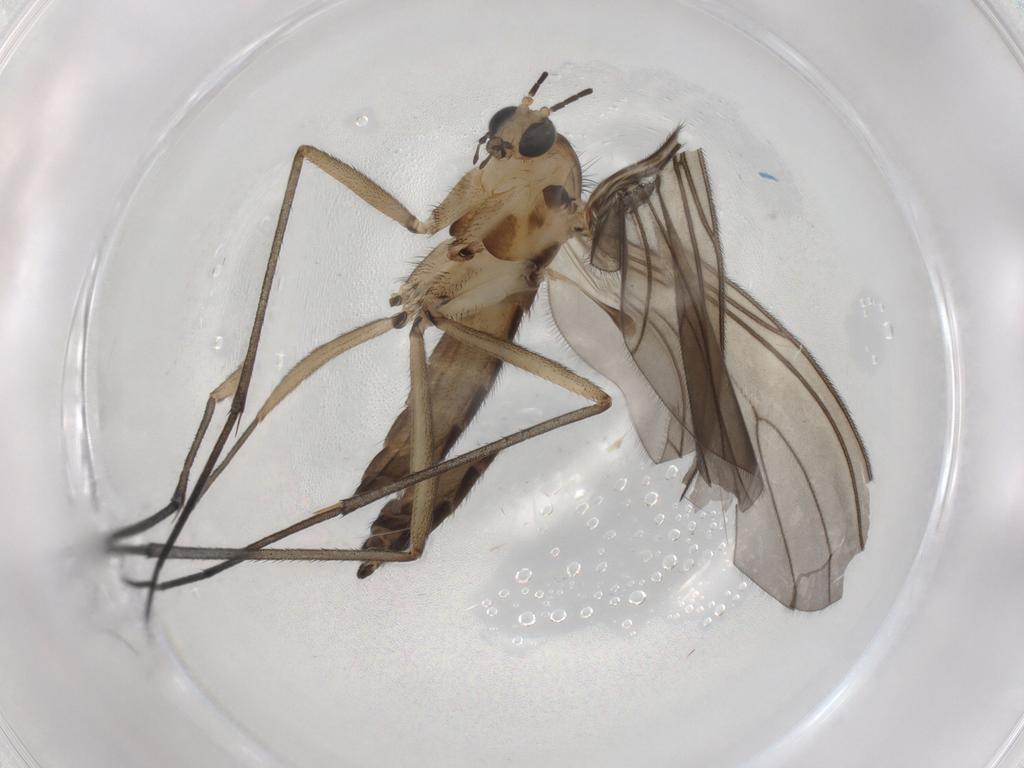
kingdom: Animalia
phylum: Arthropoda
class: Insecta
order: Diptera
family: Sciaridae
